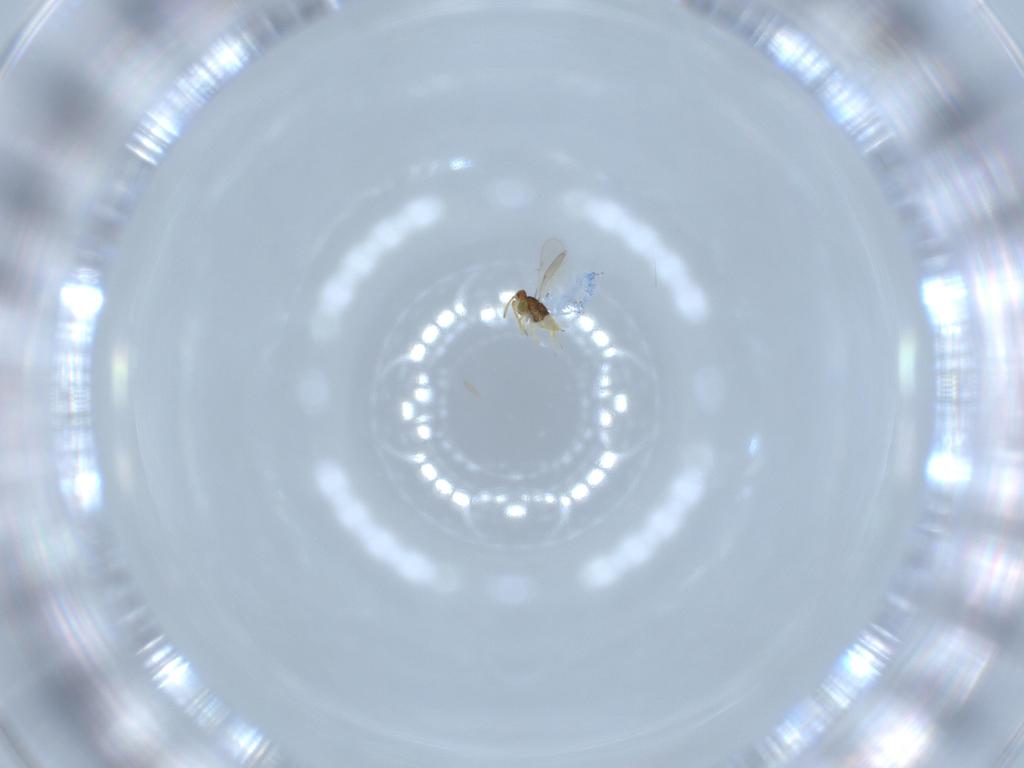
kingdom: Animalia
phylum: Arthropoda
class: Insecta
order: Hymenoptera
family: Aphelinidae
